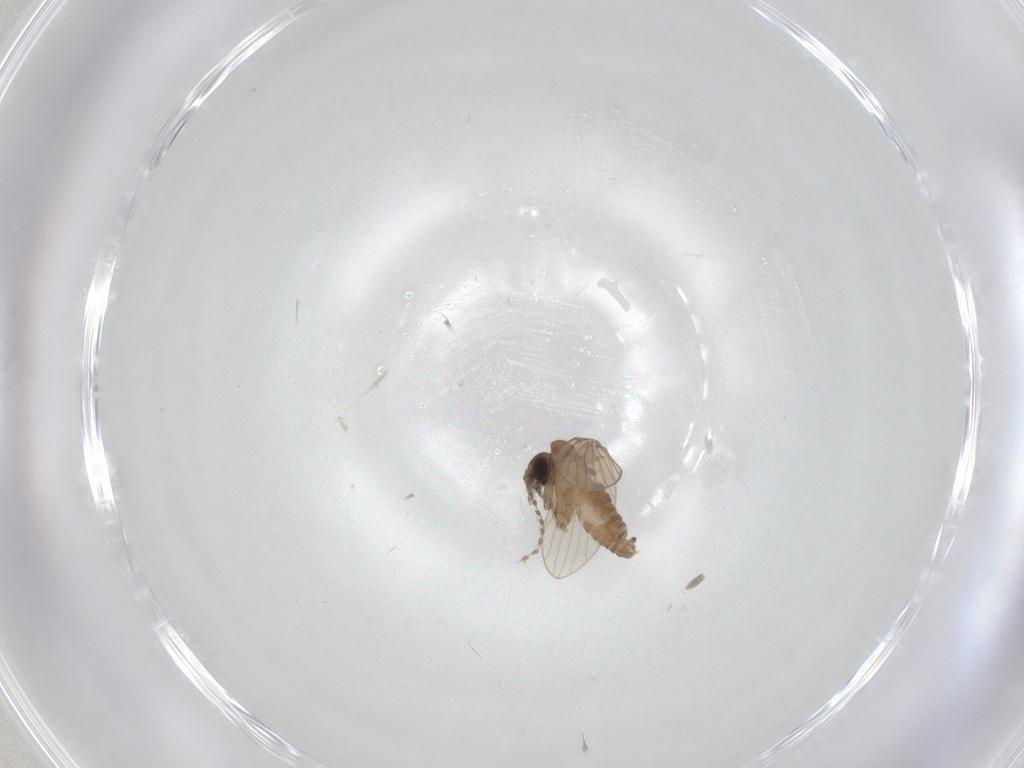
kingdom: Animalia
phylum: Arthropoda
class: Insecta
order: Diptera
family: Psychodidae
